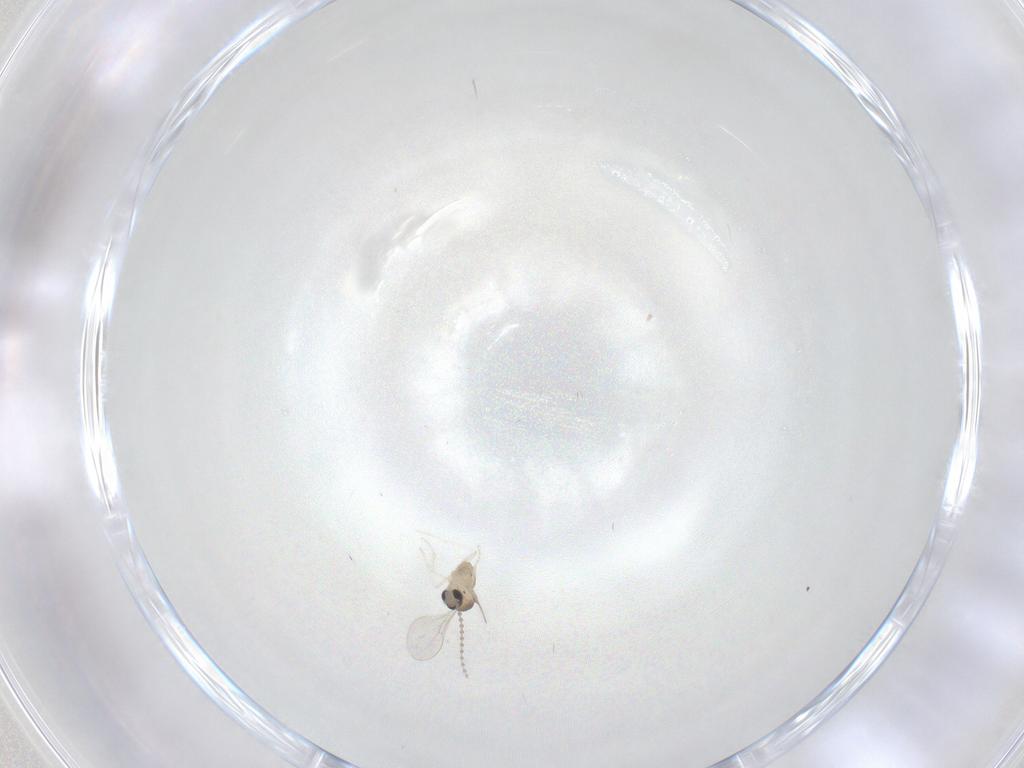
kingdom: Animalia
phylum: Arthropoda
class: Insecta
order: Diptera
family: Cecidomyiidae
